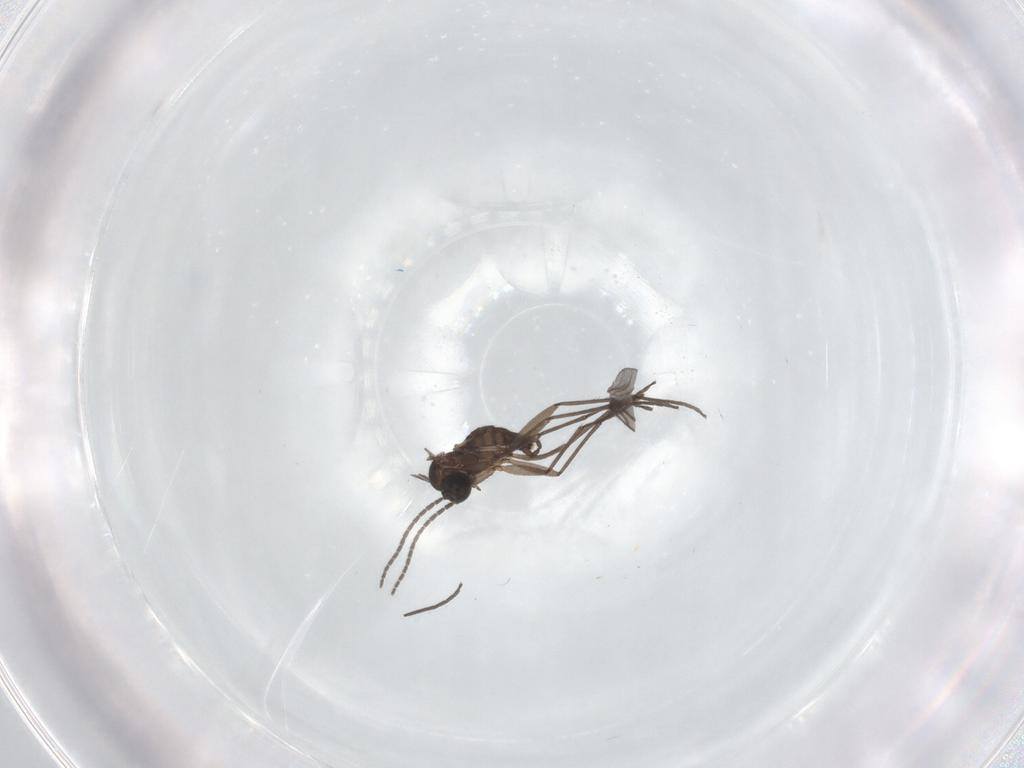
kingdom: Animalia
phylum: Arthropoda
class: Insecta
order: Diptera
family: Sciaridae
